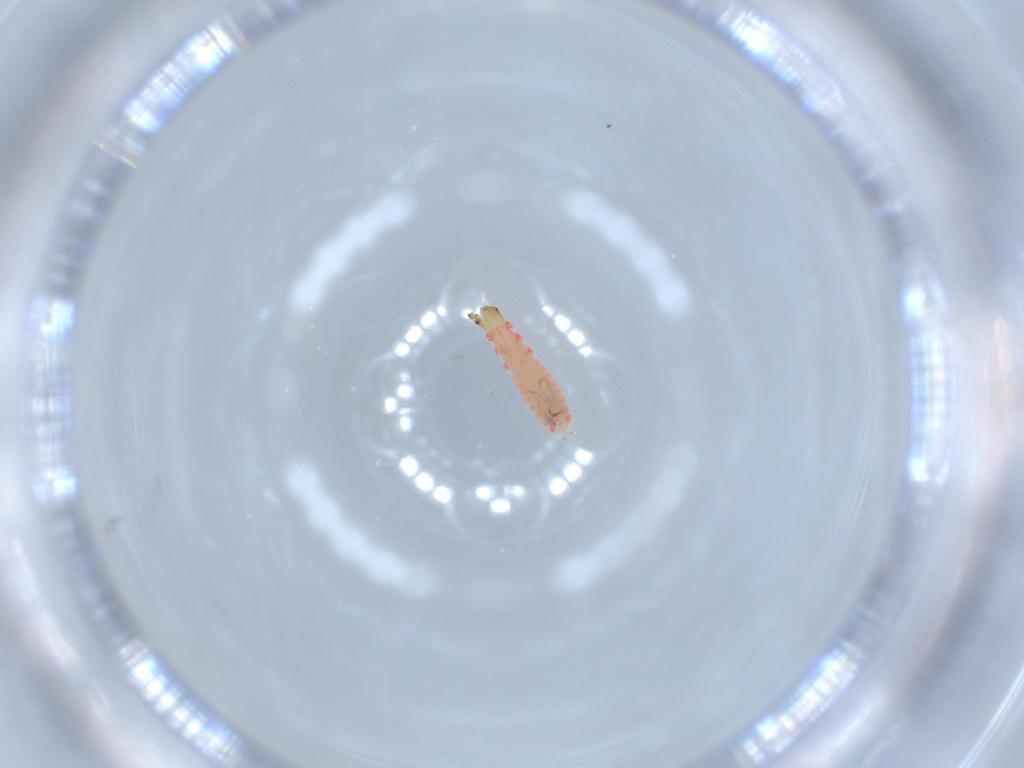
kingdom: Animalia
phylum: Arthropoda
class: Insecta
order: Coleoptera
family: Melyridae
